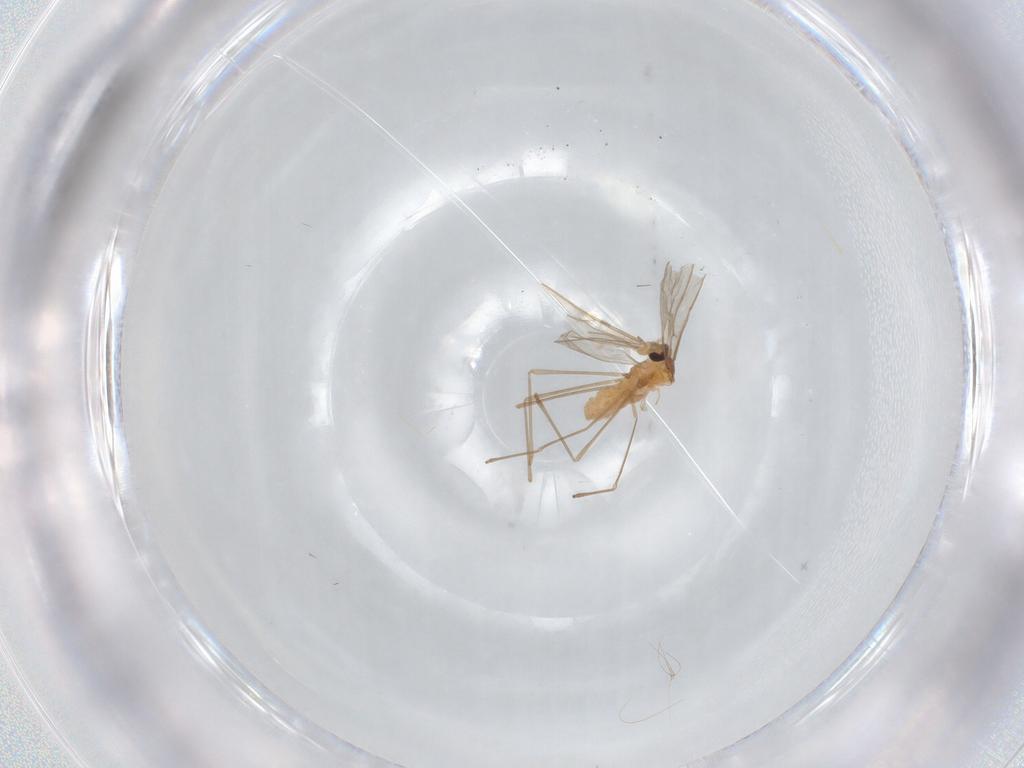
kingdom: Animalia
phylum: Arthropoda
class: Insecta
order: Diptera
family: Cecidomyiidae
